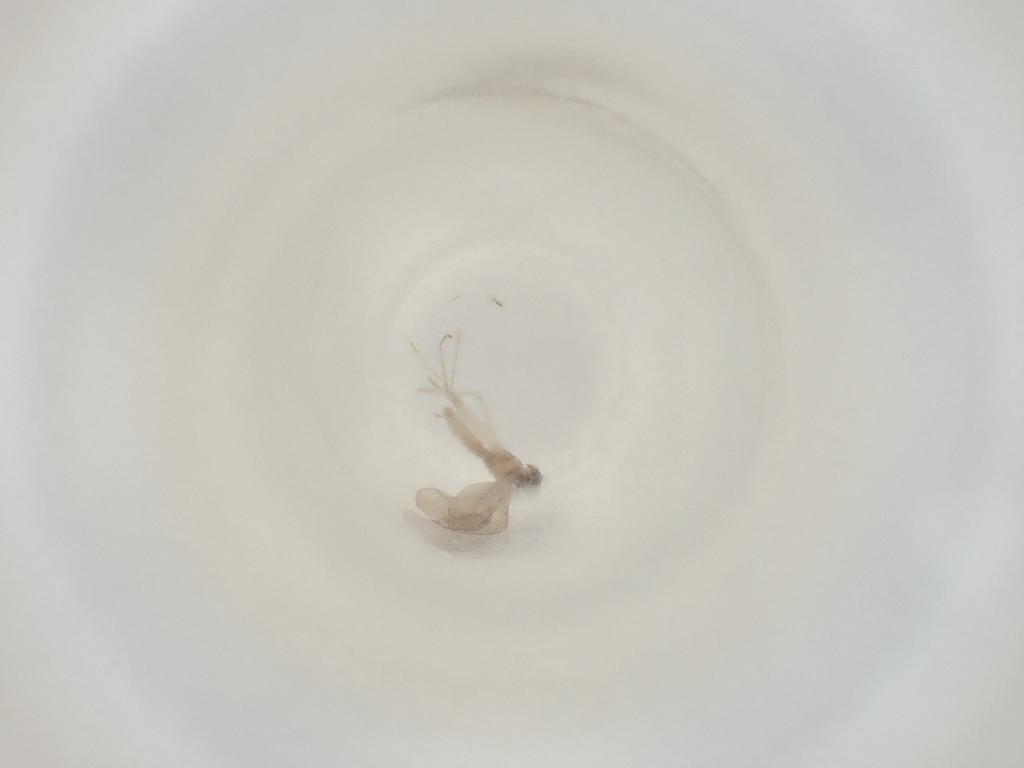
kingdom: Animalia
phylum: Arthropoda
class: Insecta
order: Diptera
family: Cecidomyiidae
